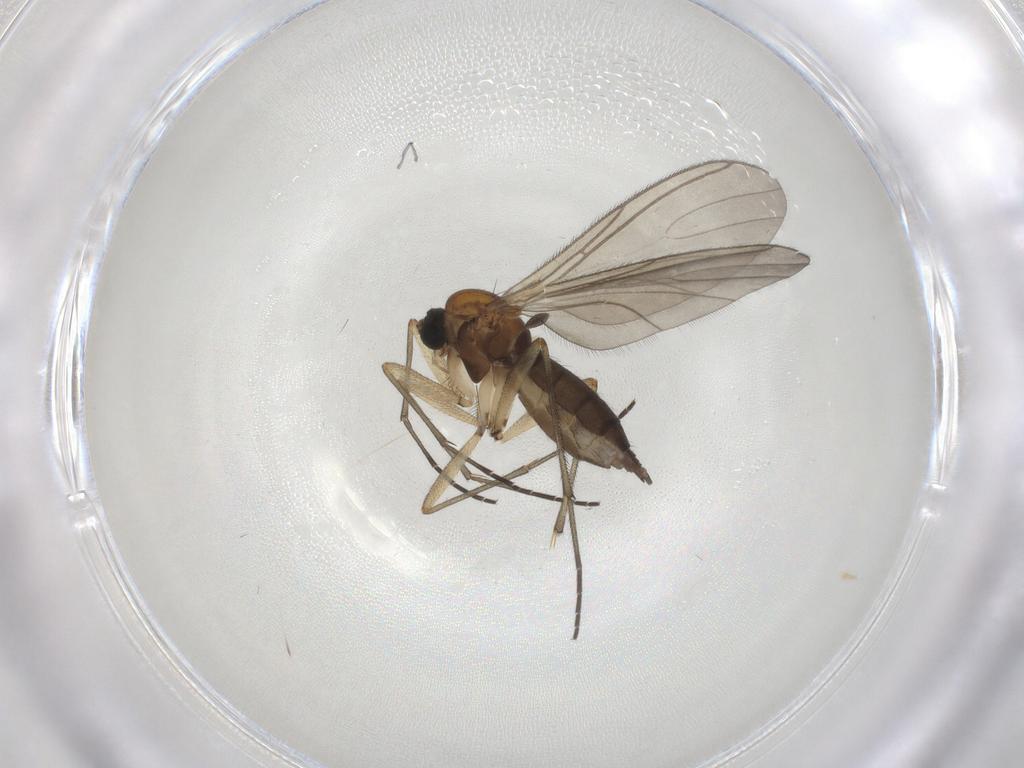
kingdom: Animalia
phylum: Arthropoda
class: Insecta
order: Diptera
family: Sciaridae
